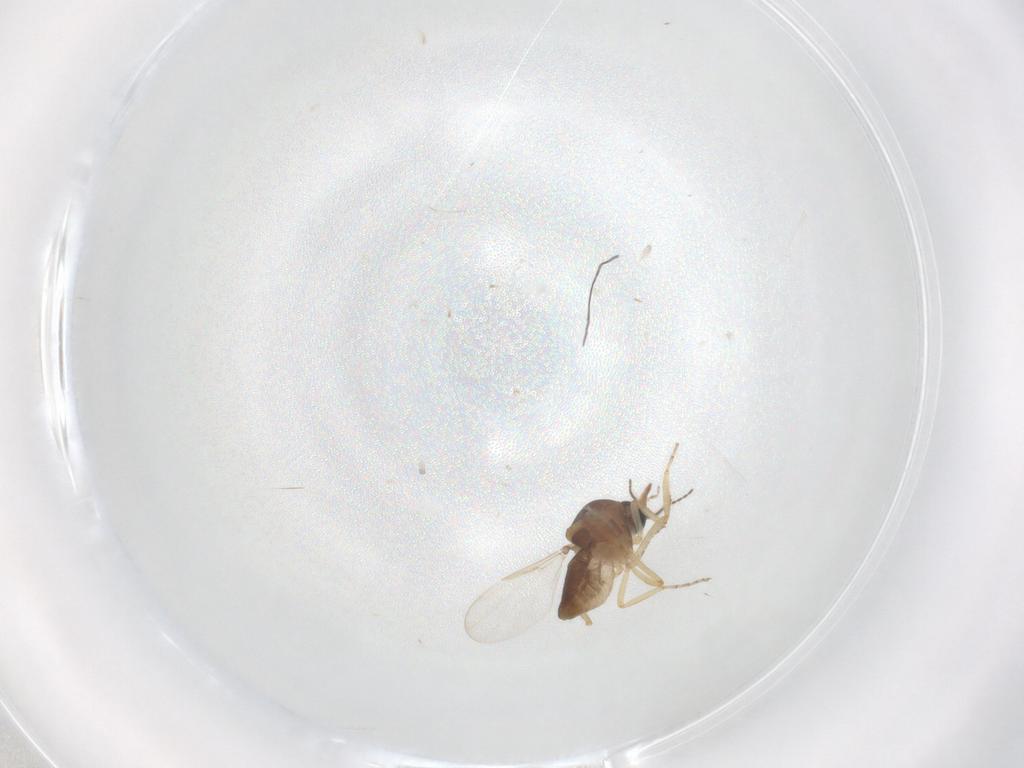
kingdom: Animalia
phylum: Arthropoda
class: Insecta
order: Diptera
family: Ceratopogonidae
